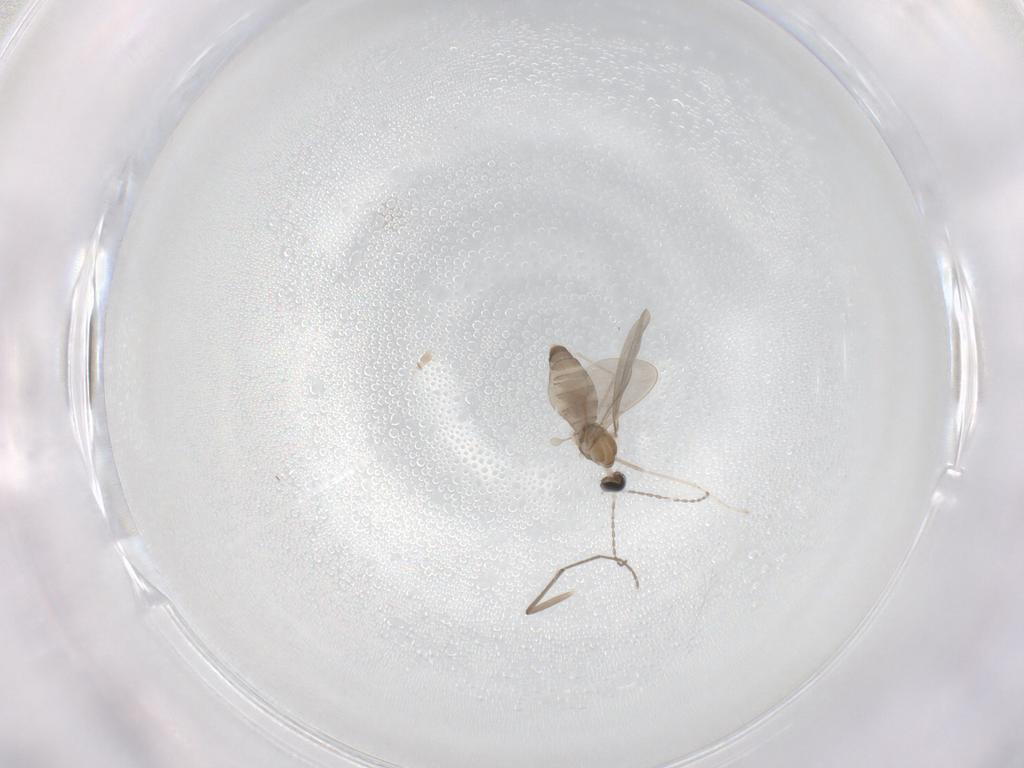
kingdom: Animalia
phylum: Arthropoda
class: Insecta
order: Diptera
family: Cecidomyiidae
